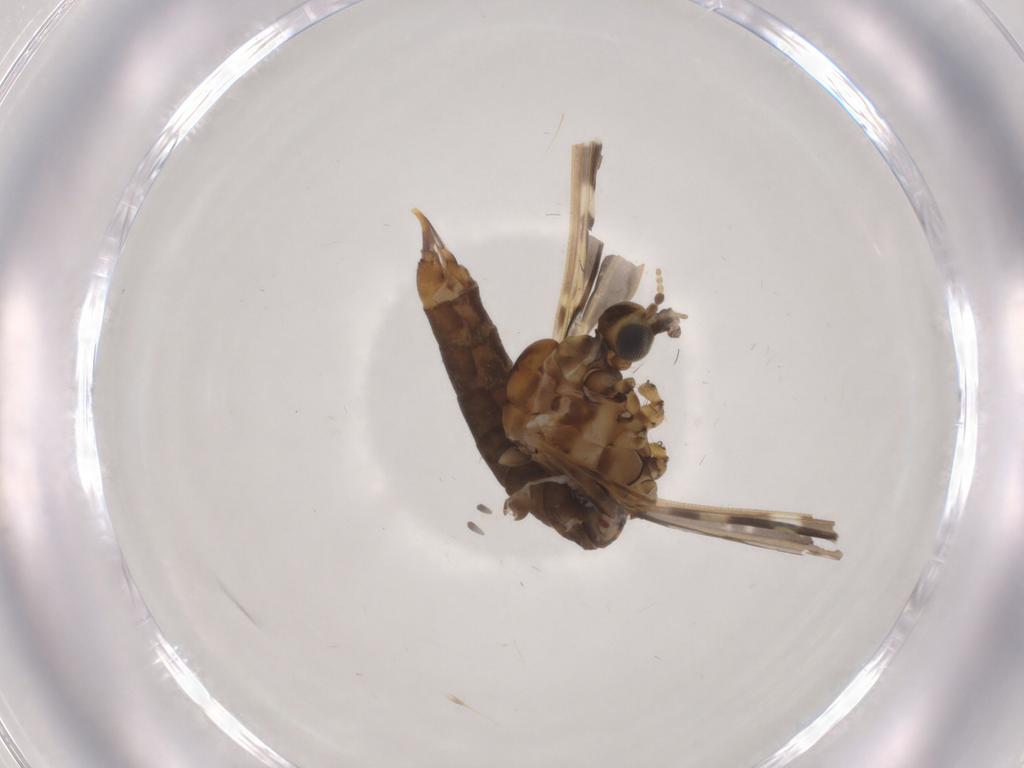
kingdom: Animalia
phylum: Arthropoda
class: Insecta
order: Diptera
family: Limoniidae
